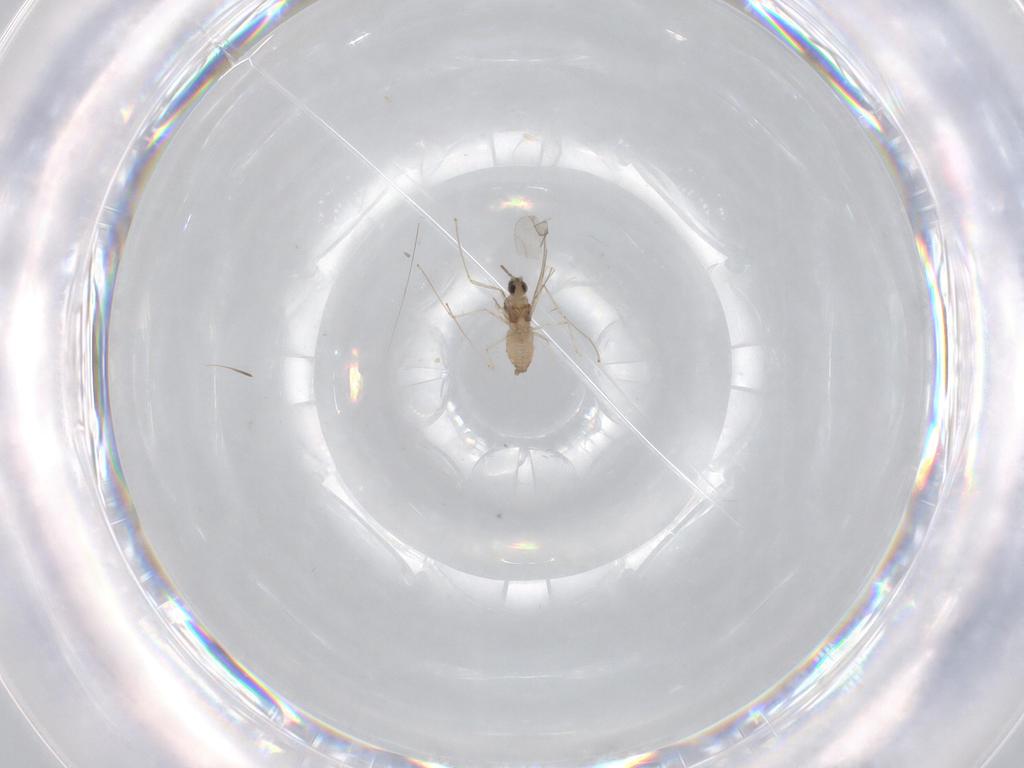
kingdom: Animalia
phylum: Arthropoda
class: Insecta
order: Diptera
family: Cecidomyiidae
